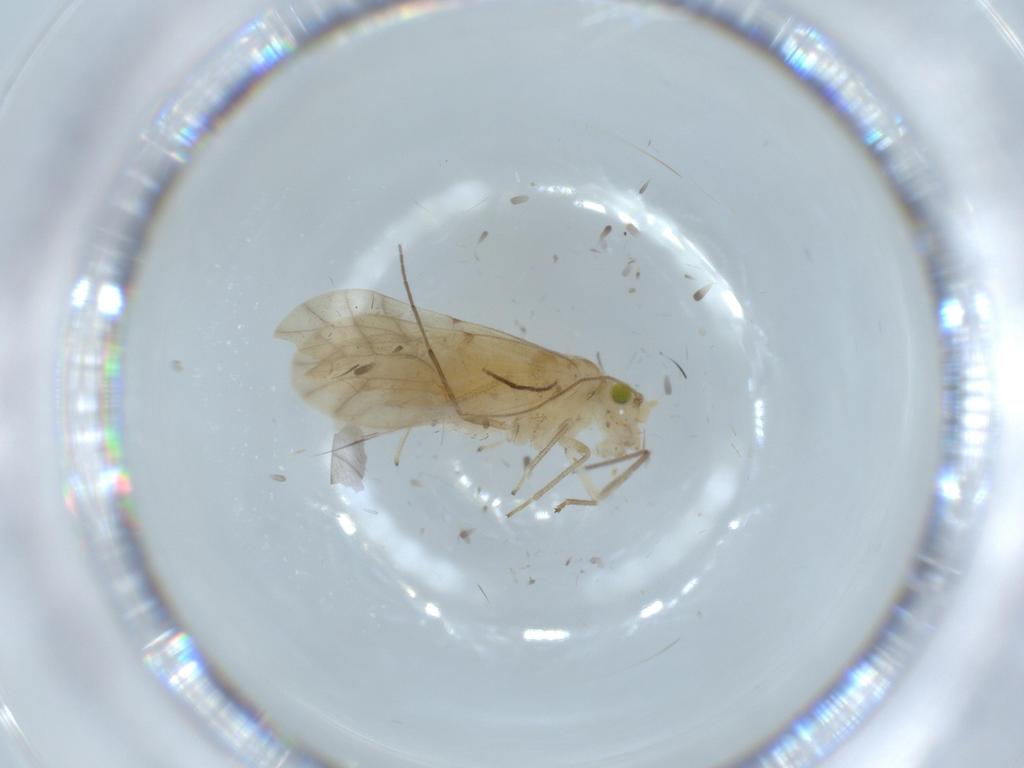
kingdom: Animalia
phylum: Arthropoda
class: Insecta
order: Psocodea
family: Caeciliusidae
